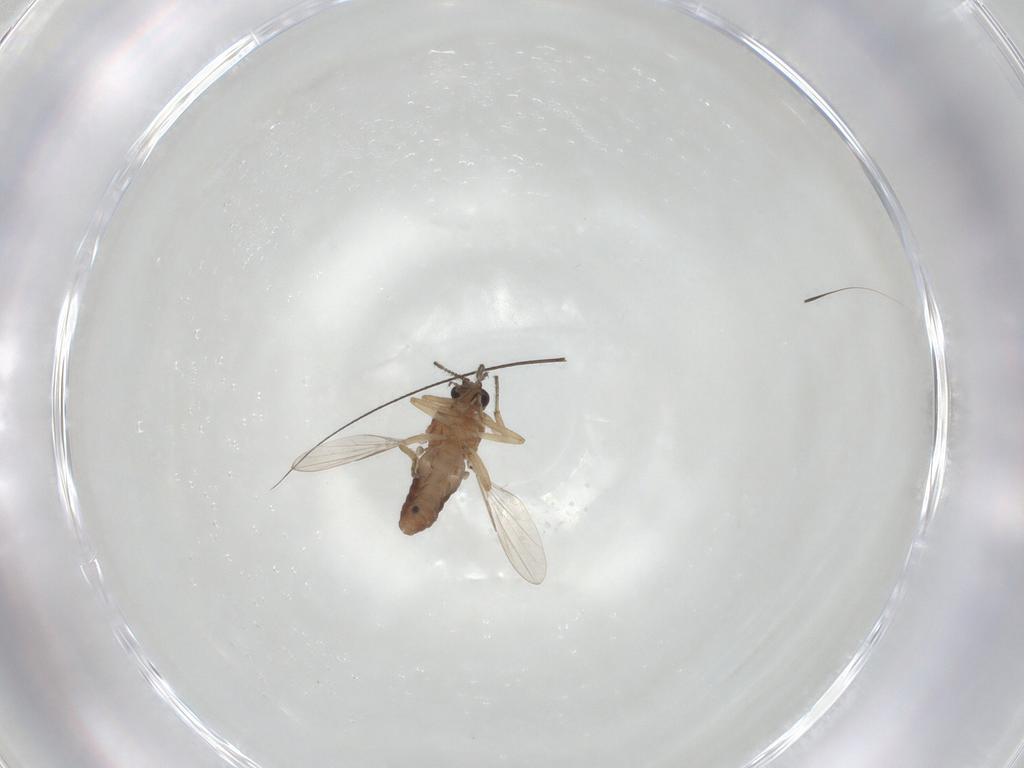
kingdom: Animalia
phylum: Arthropoda
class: Insecta
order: Diptera
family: Ceratopogonidae
